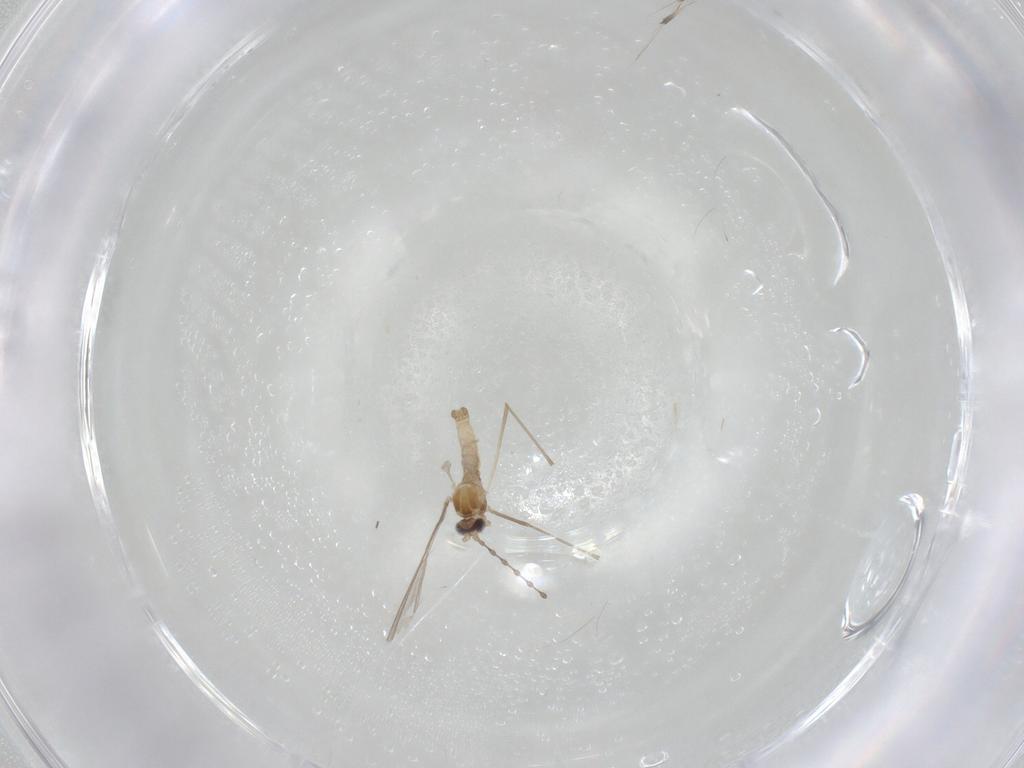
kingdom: Animalia
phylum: Arthropoda
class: Insecta
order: Diptera
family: Cecidomyiidae
